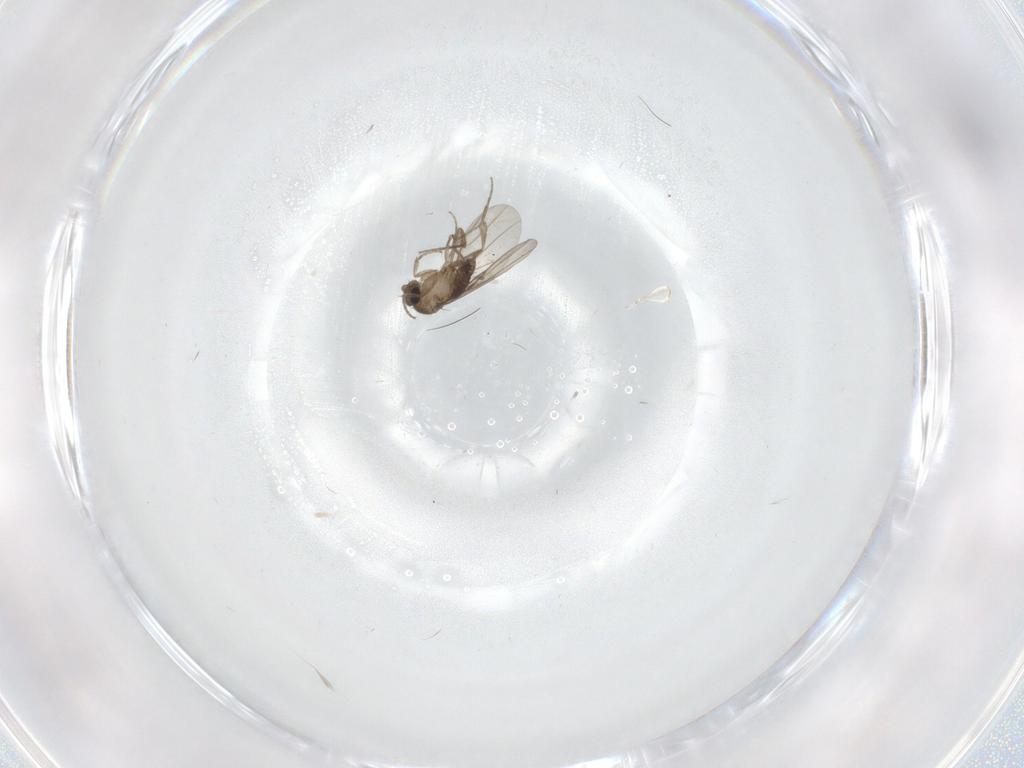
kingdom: Animalia
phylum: Arthropoda
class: Insecta
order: Diptera
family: Phoridae
